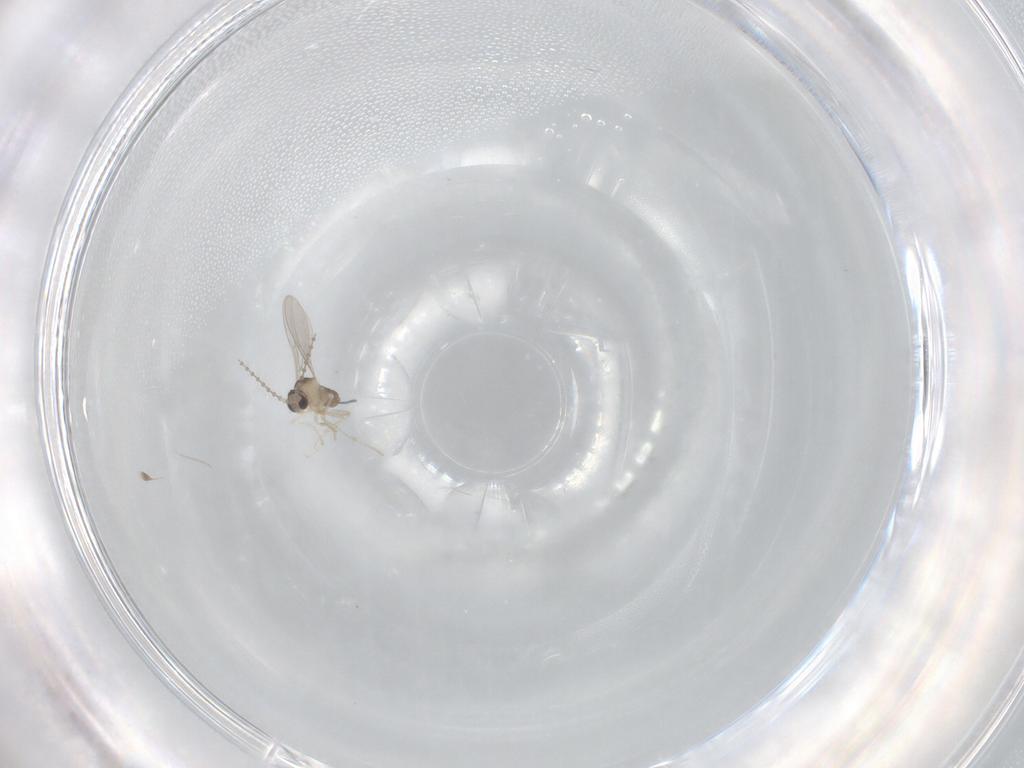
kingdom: Animalia
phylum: Arthropoda
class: Insecta
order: Diptera
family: Cecidomyiidae
